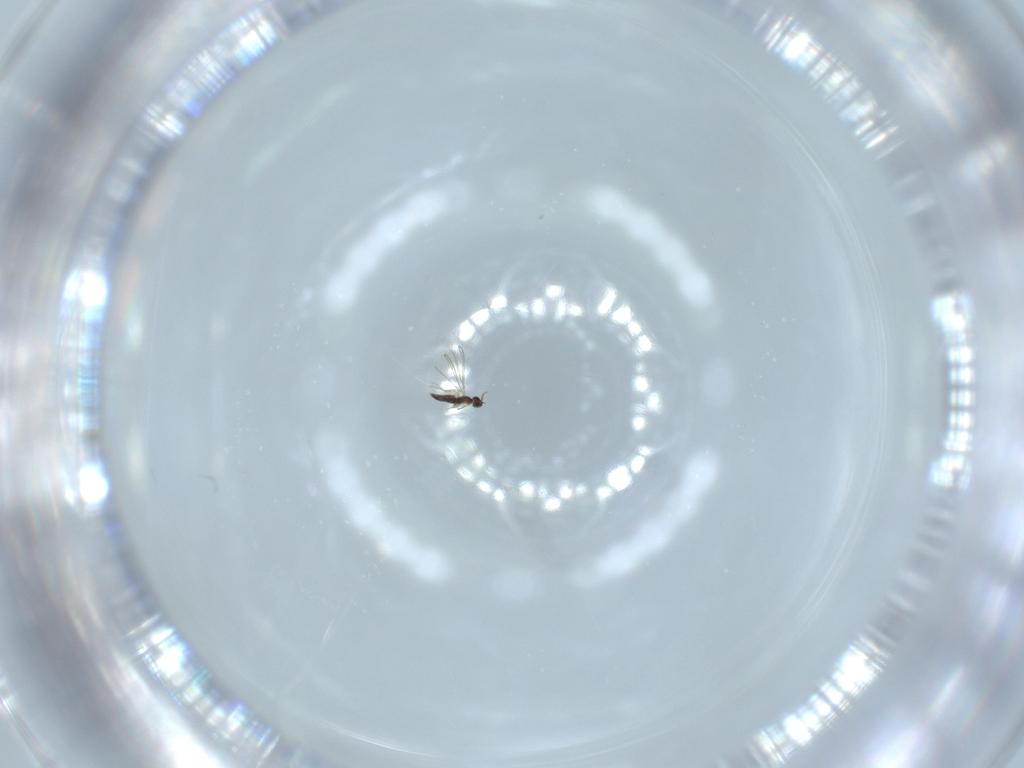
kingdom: Animalia
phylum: Arthropoda
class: Insecta
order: Hymenoptera
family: Mymaridae
